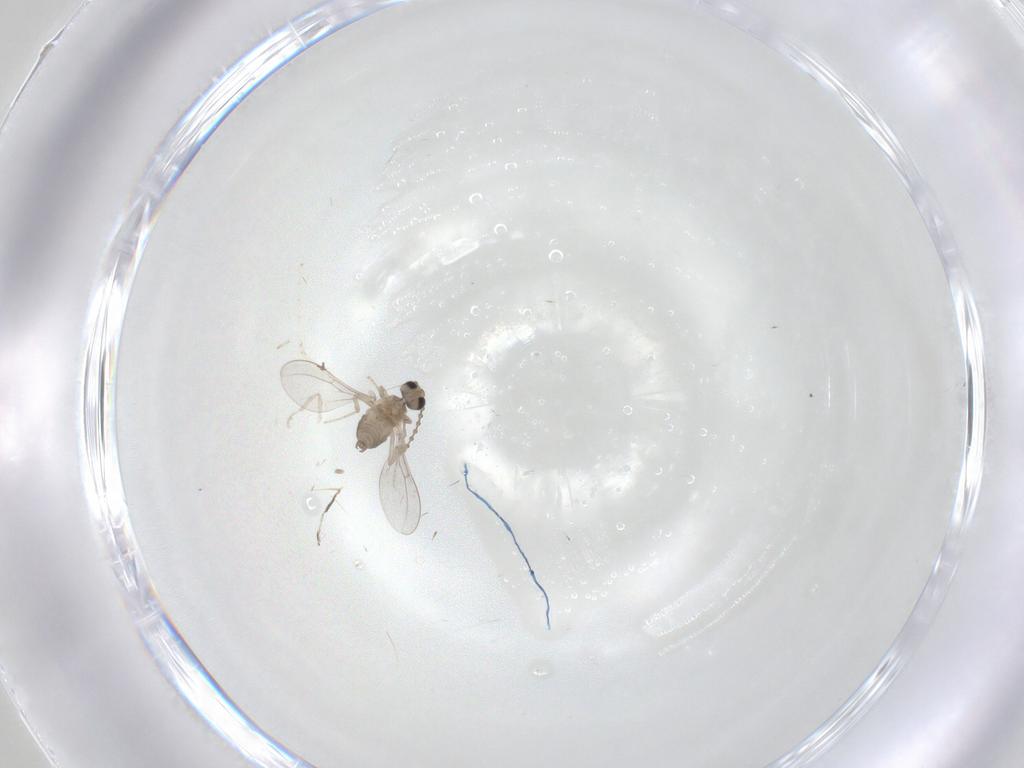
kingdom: Animalia
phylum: Arthropoda
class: Insecta
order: Diptera
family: Cecidomyiidae
